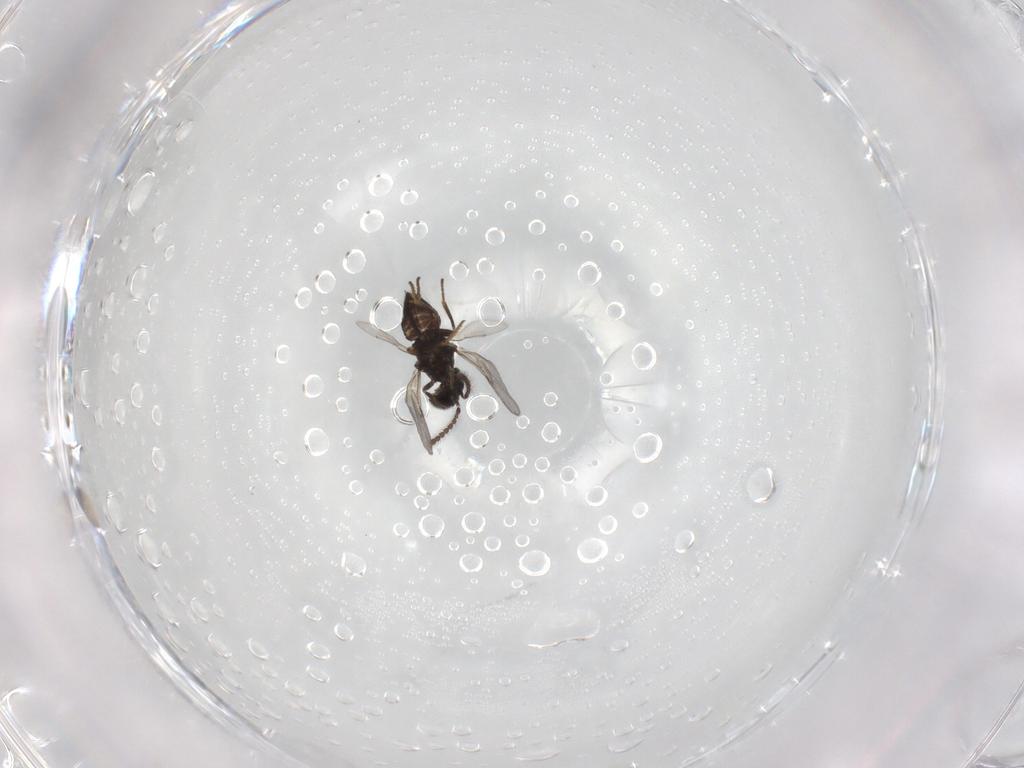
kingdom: Animalia
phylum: Arthropoda
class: Insecta
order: Hymenoptera
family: Encyrtidae
